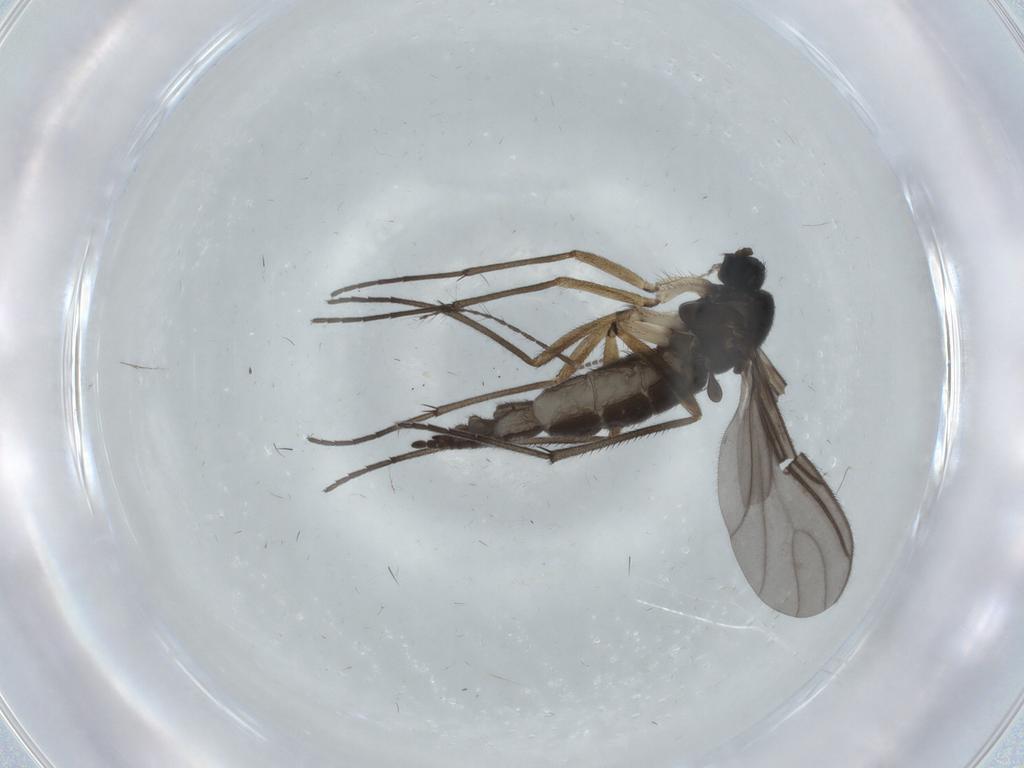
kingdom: Animalia
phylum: Arthropoda
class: Insecta
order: Diptera
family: Sciaridae
